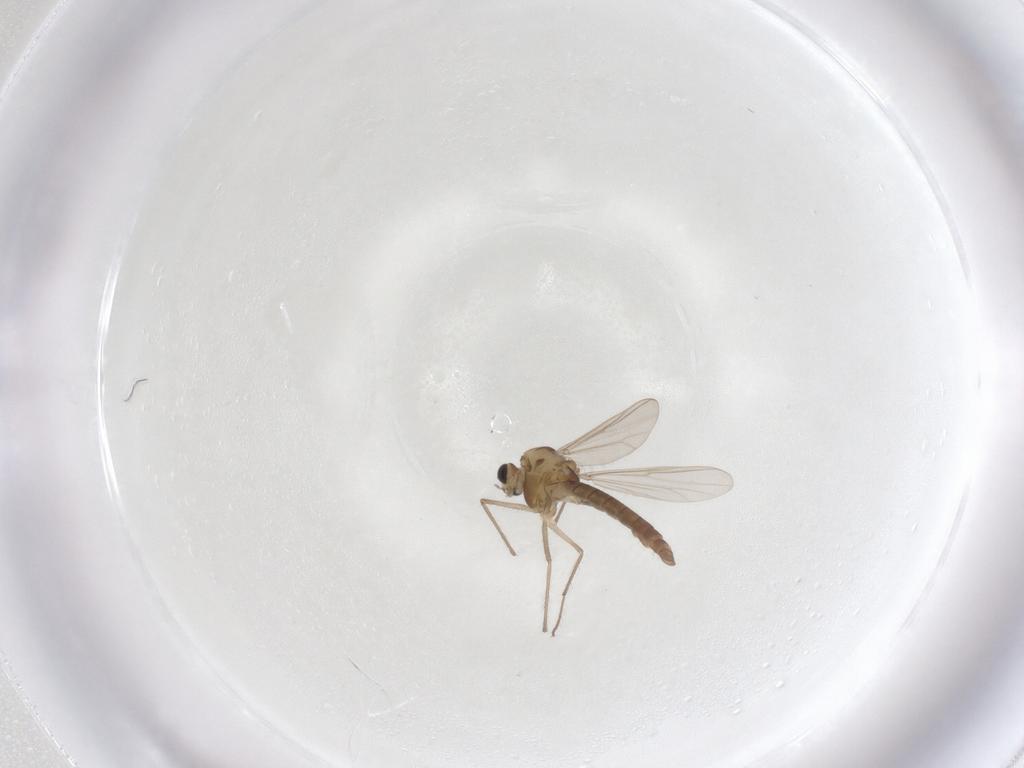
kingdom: Animalia
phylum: Arthropoda
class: Insecta
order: Diptera
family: Chironomidae
